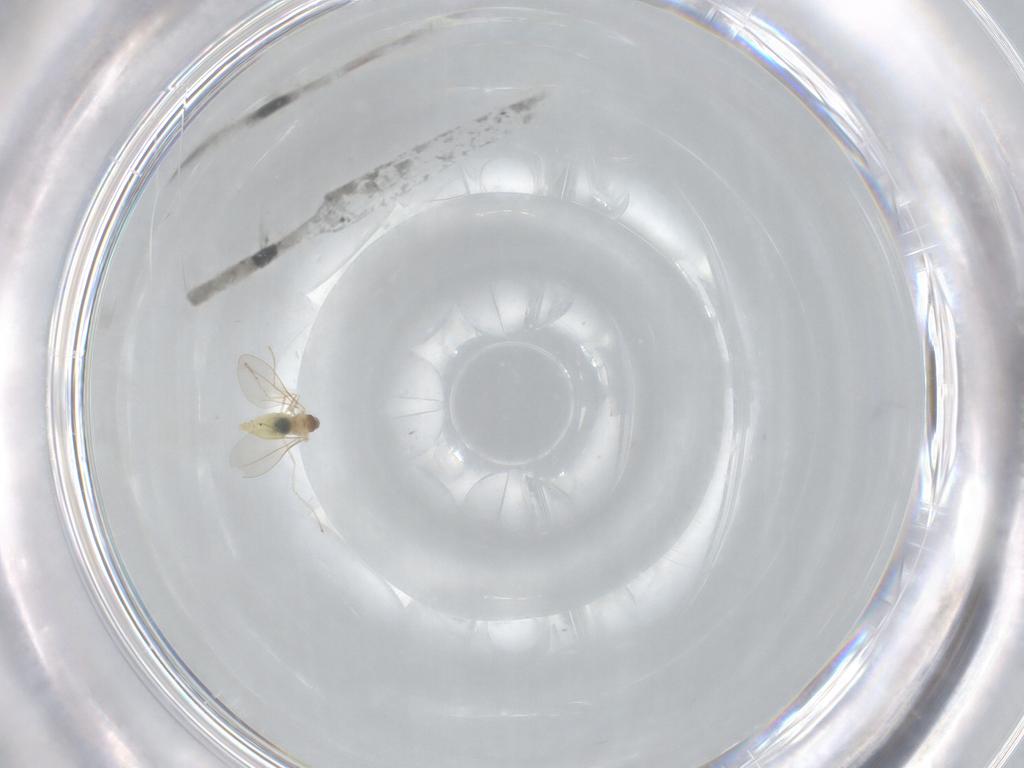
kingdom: Animalia
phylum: Arthropoda
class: Insecta
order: Diptera
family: Cecidomyiidae
